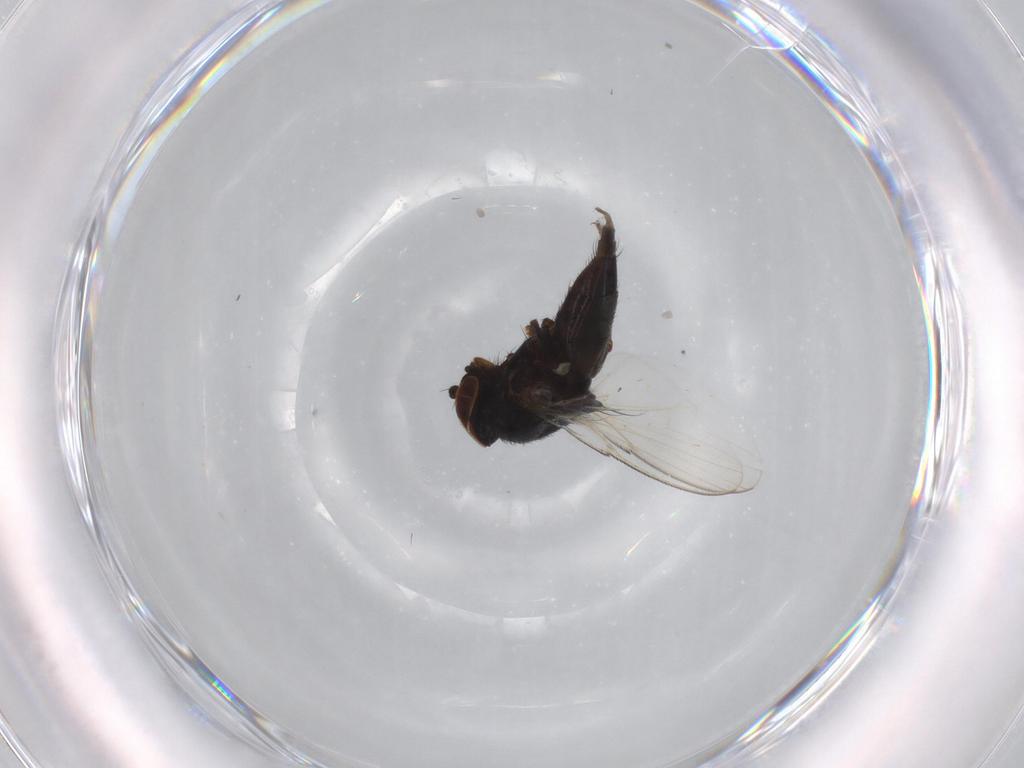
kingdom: Animalia
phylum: Arthropoda
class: Insecta
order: Diptera
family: Milichiidae
